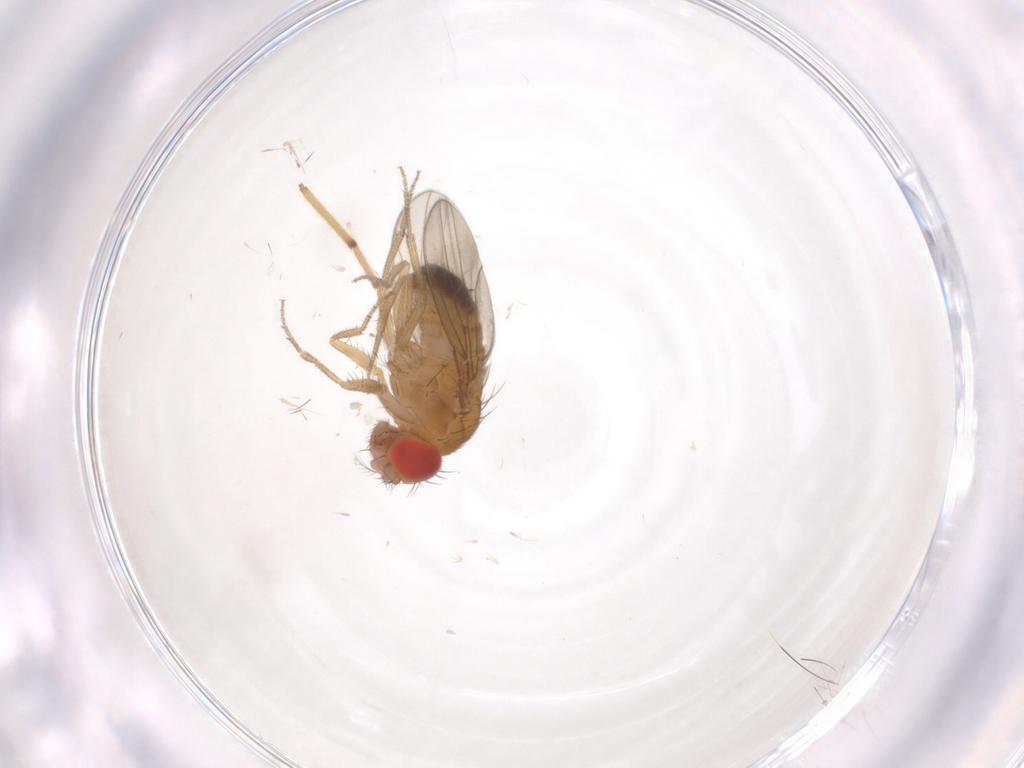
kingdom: Animalia
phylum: Arthropoda
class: Insecta
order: Diptera
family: Drosophilidae
